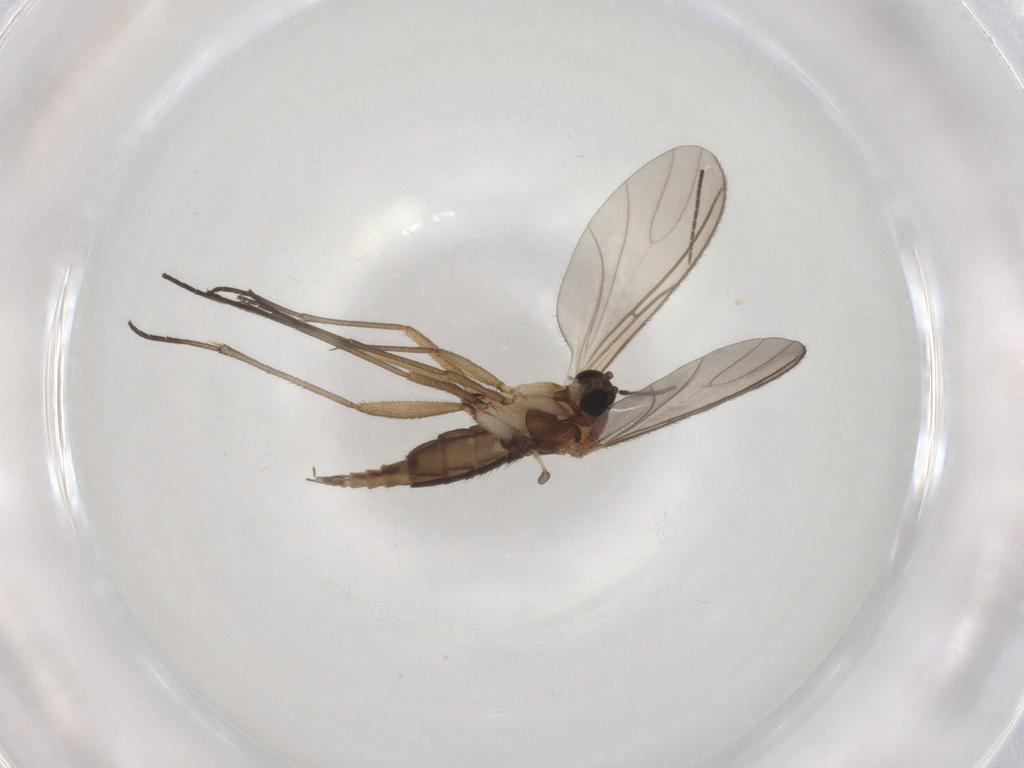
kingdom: Animalia
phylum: Arthropoda
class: Insecta
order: Diptera
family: Sciaridae
